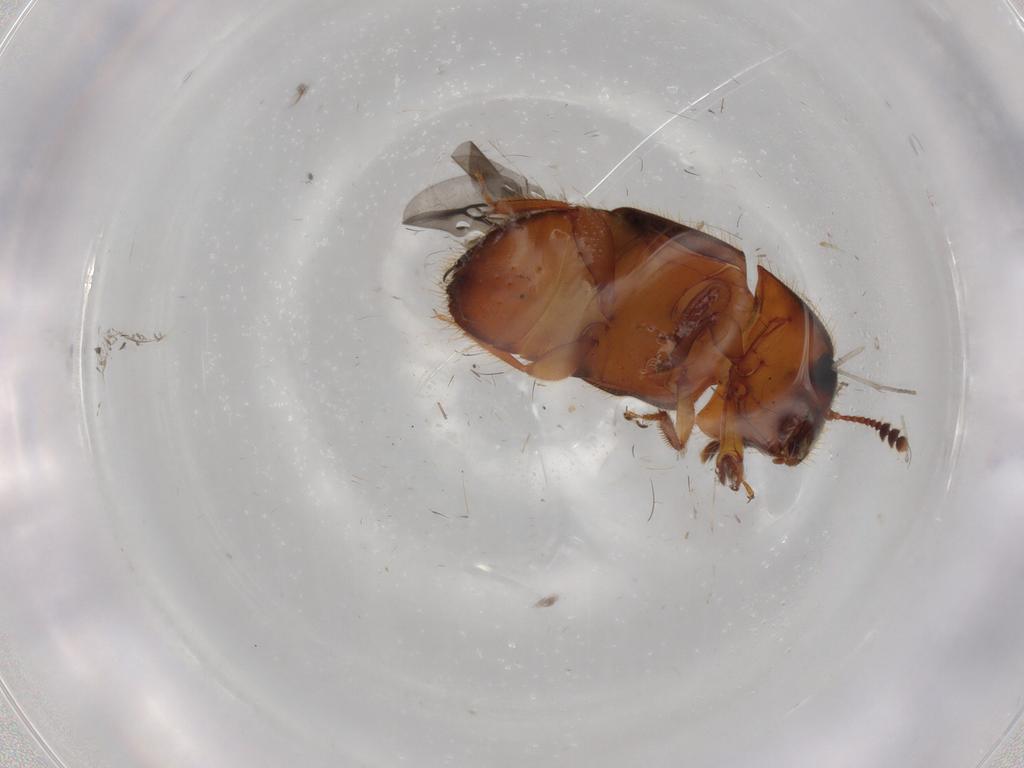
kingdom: Animalia
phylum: Arthropoda
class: Insecta
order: Coleoptera
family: Nitidulidae
